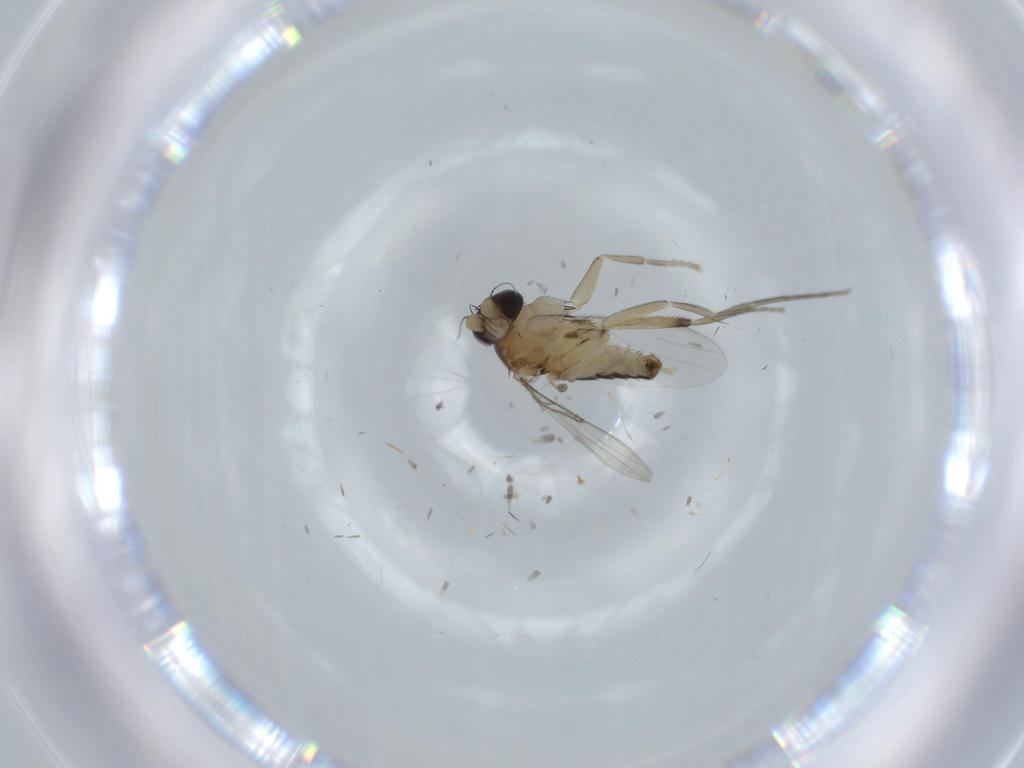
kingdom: Animalia
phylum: Arthropoda
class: Insecta
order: Diptera
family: Phoridae
